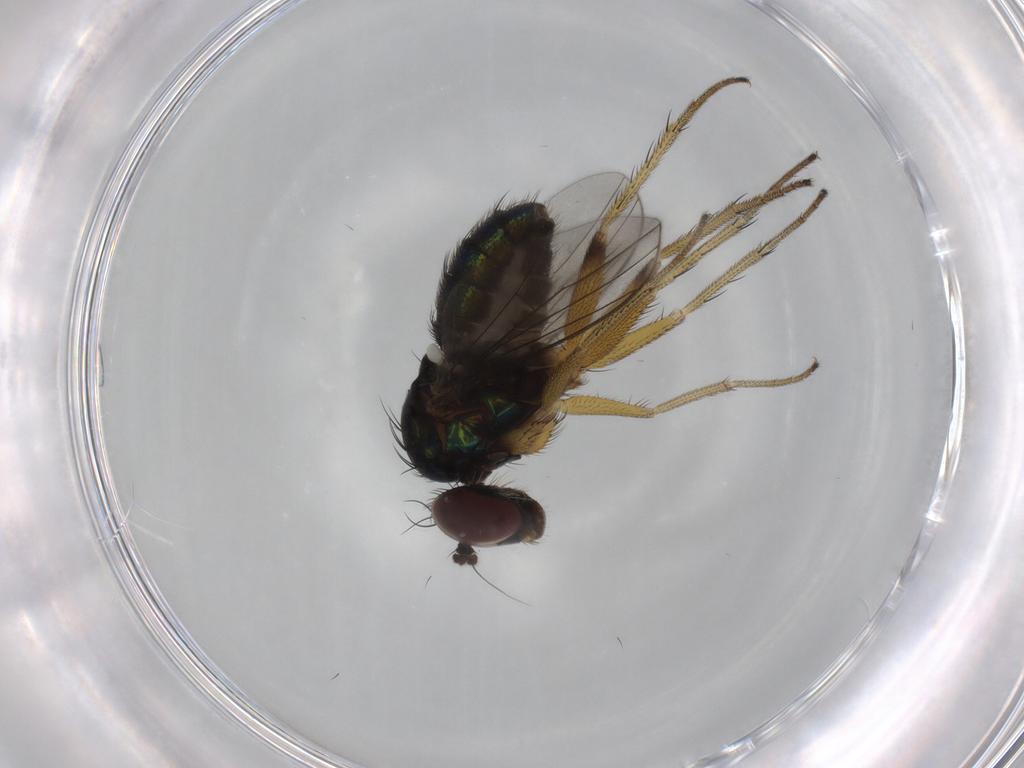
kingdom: Animalia
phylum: Arthropoda
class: Insecta
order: Diptera
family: Dolichopodidae
